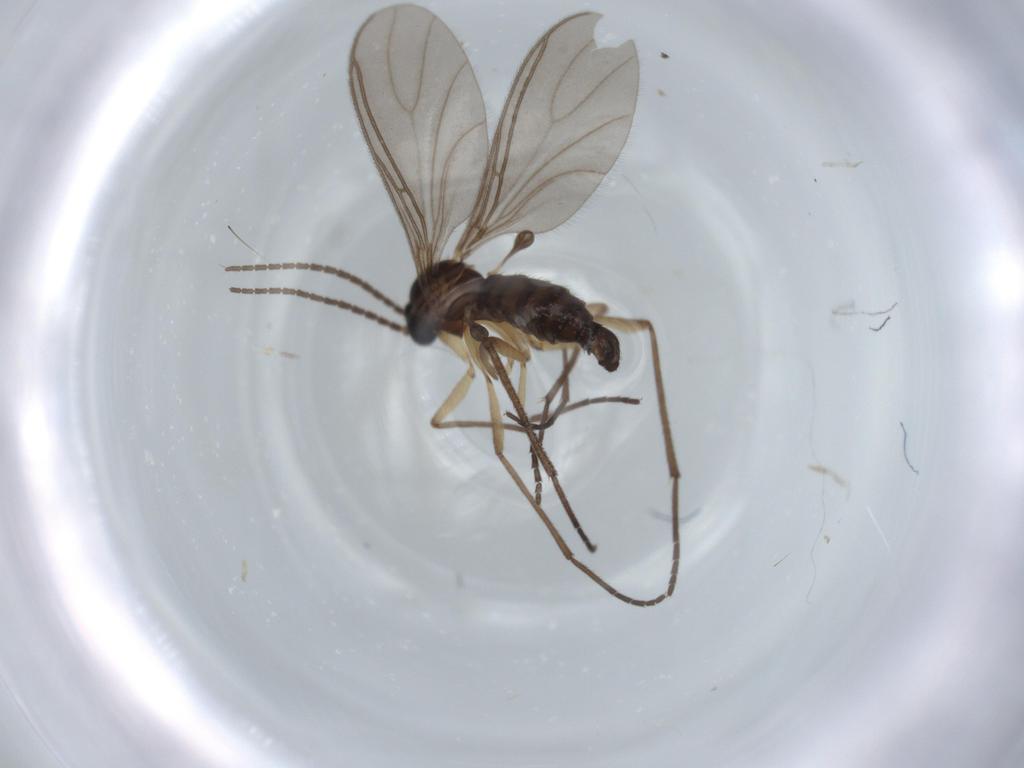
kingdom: Animalia
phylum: Arthropoda
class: Insecta
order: Diptera
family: Sciaridae
